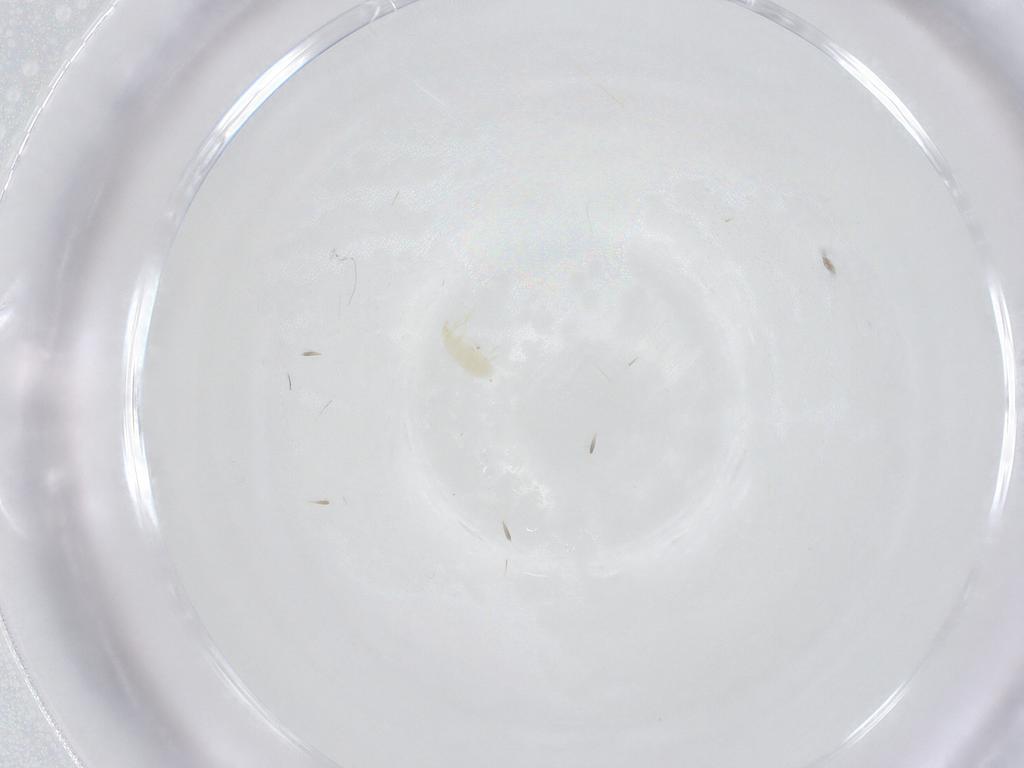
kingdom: Animalia
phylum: Arthropoda
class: Arachnida
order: Trombidiformes
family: Erythraeidae
